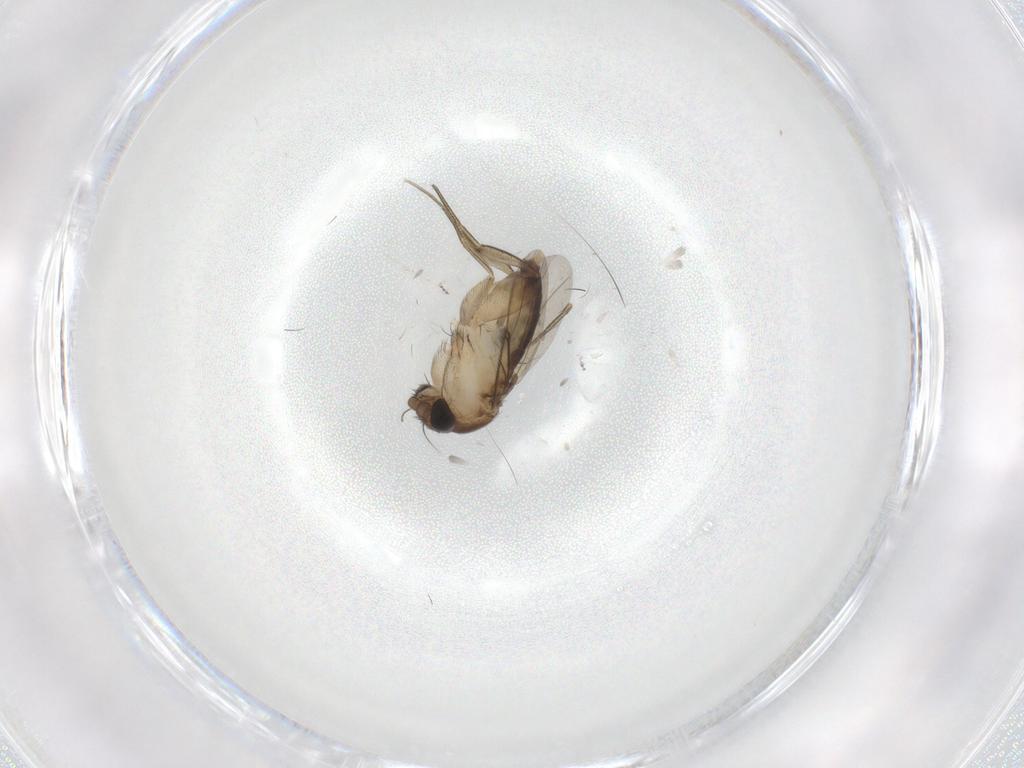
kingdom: Animalia
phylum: Arthropoda
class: Insecta
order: Diptera
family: Phoridae
